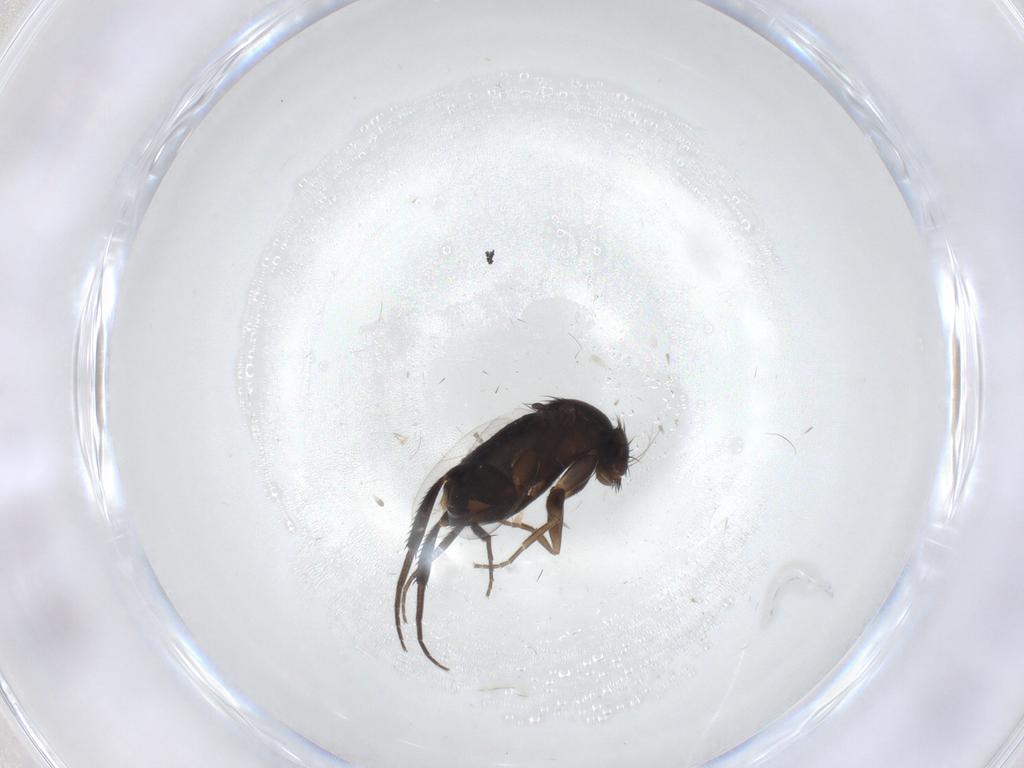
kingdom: Animalia
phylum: Arthropoda
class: Insecta
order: Diptera
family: Phoridae
